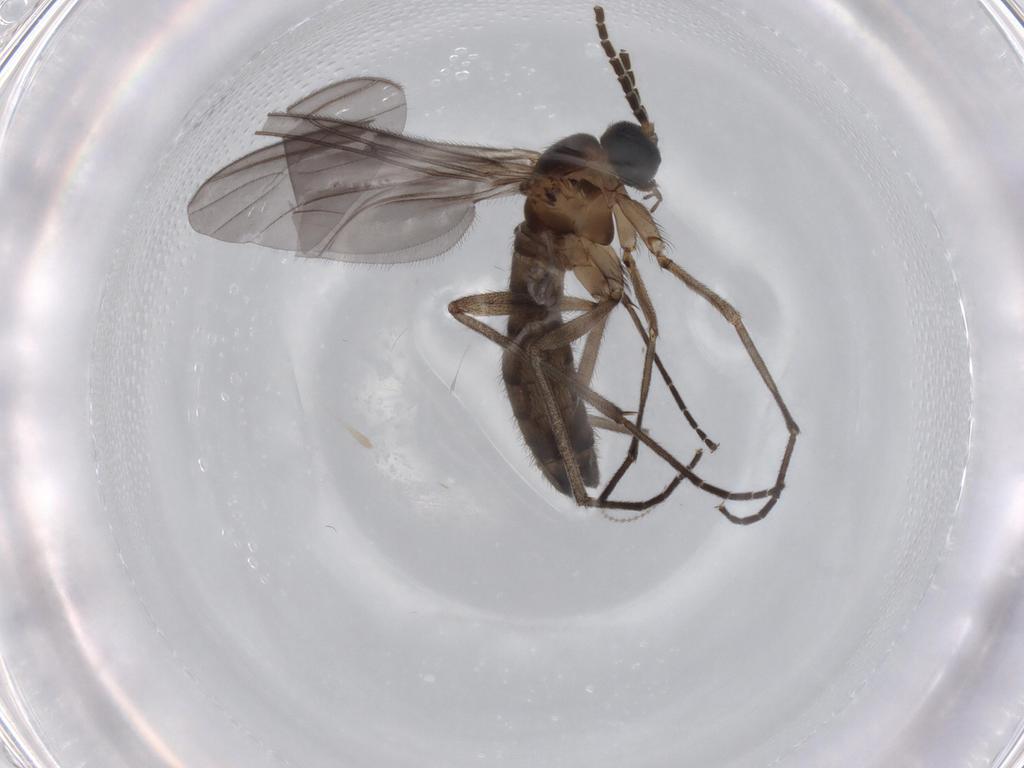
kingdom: Animalia
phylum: Arthropoda
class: Insecta
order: Diptera
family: Sciaridae
